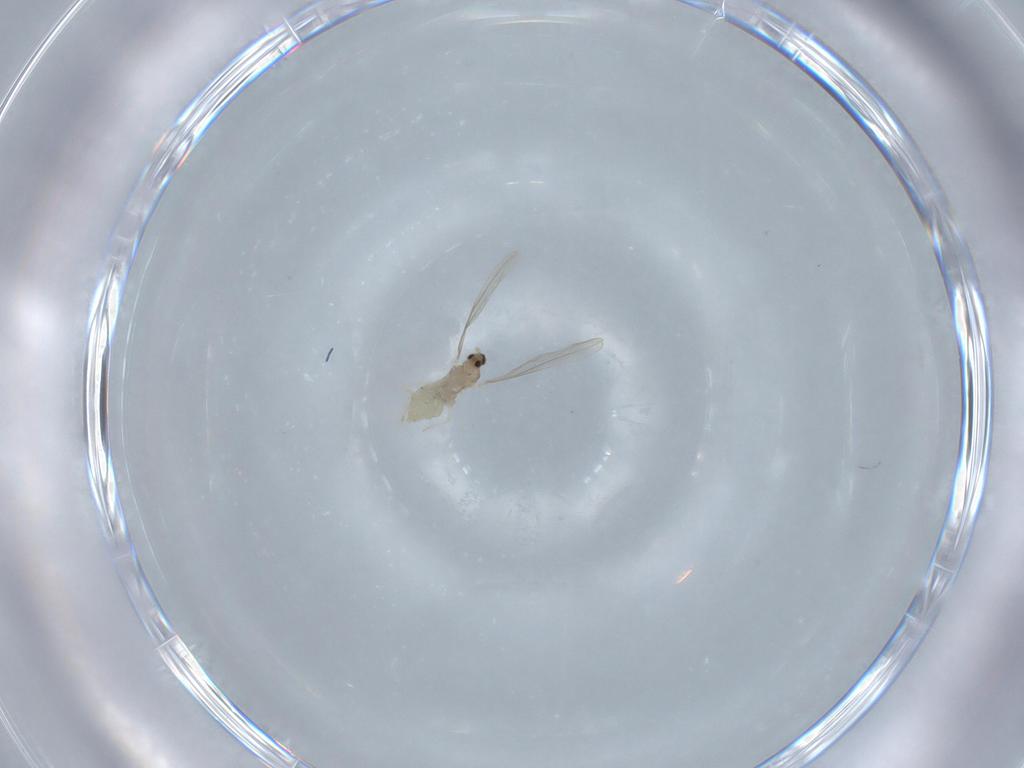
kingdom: Animalia
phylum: Arthropoda
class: Insecta
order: Diptera
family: Cecidomyiidae
